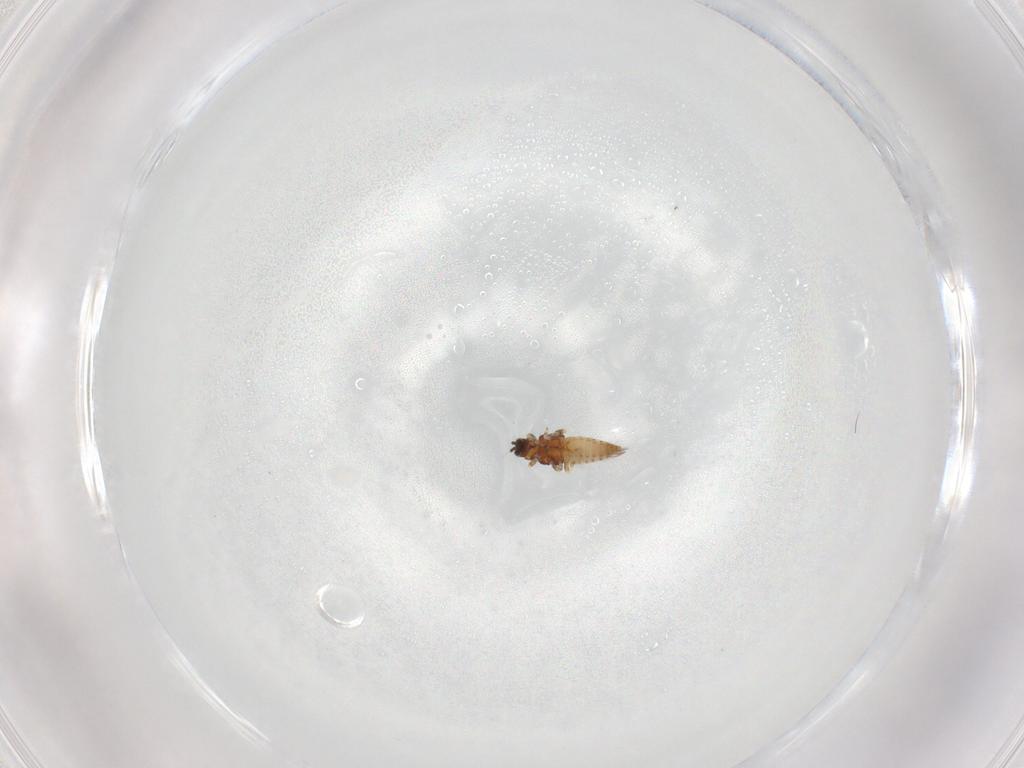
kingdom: Animalia
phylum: Arthropoda
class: Insecta
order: Thysanoptera
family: Thripidae
